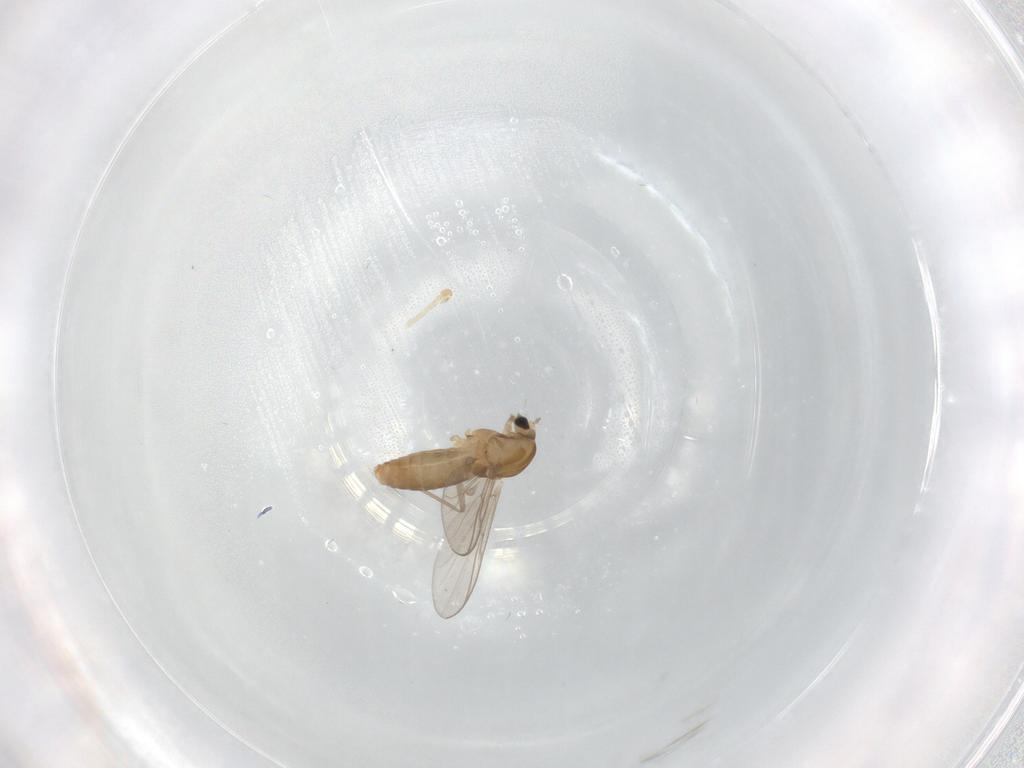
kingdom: Animalia
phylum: Arthropoda
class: Insecta
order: Diptera
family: Chironomidae
